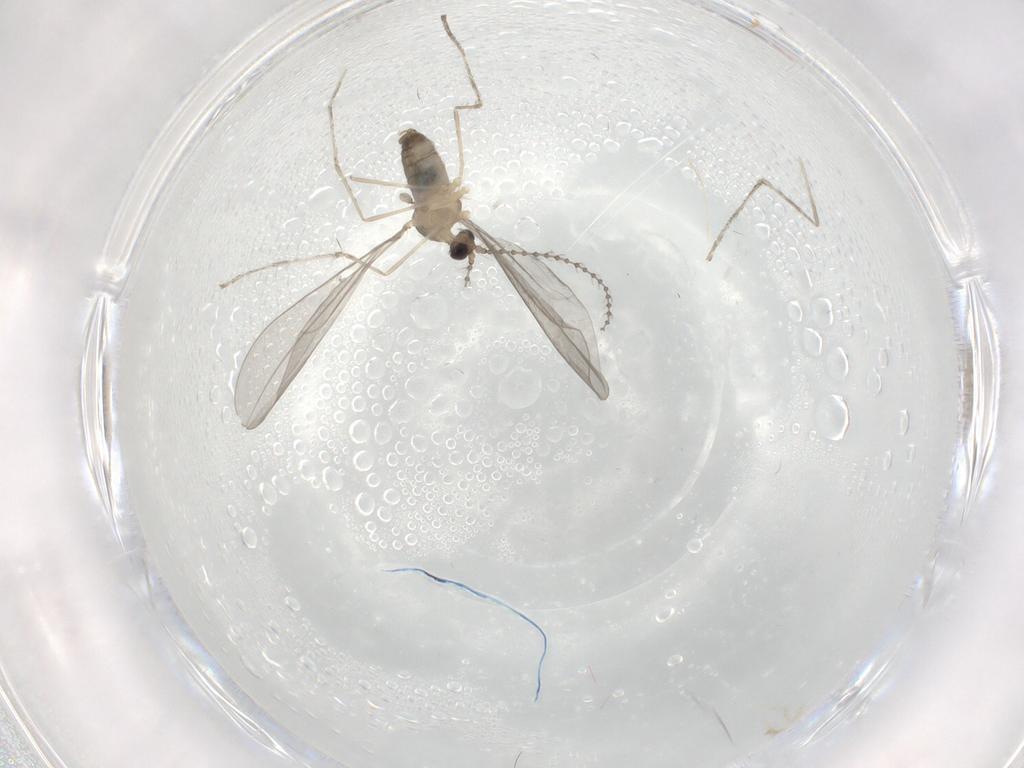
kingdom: Animalia
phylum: Arthropoda
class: Insecta
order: Diptera
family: Cecidomyiidae
